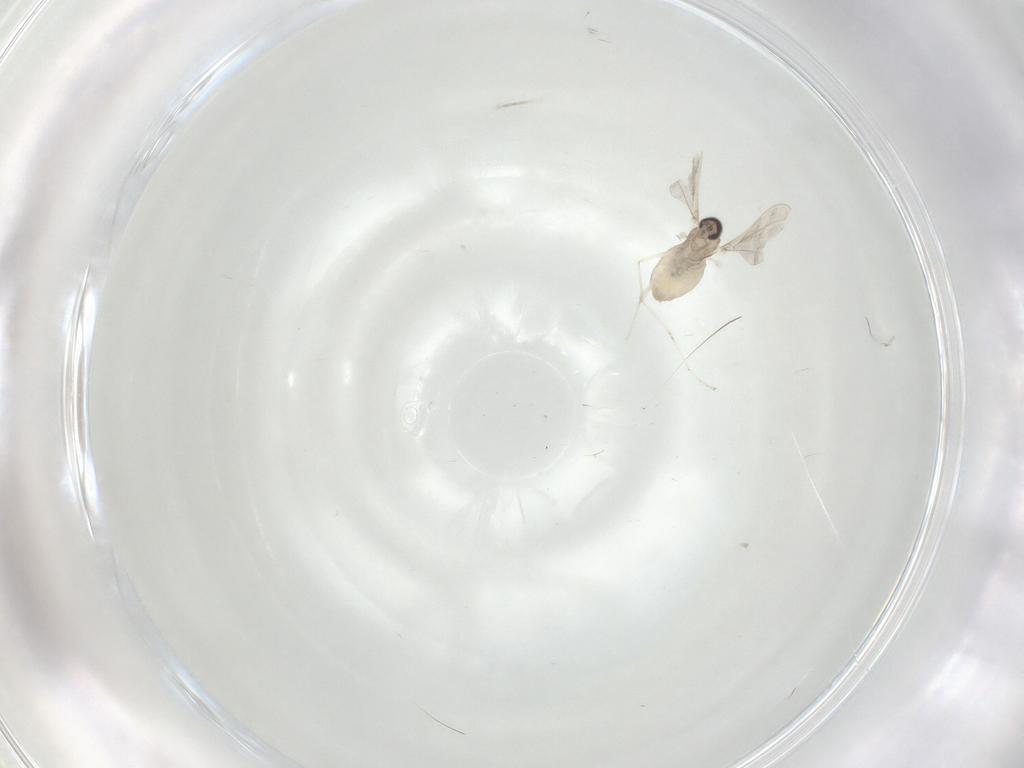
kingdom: Animalia
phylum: Arthropoda
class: Insecta
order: Diptera
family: Cecidomyiidae
